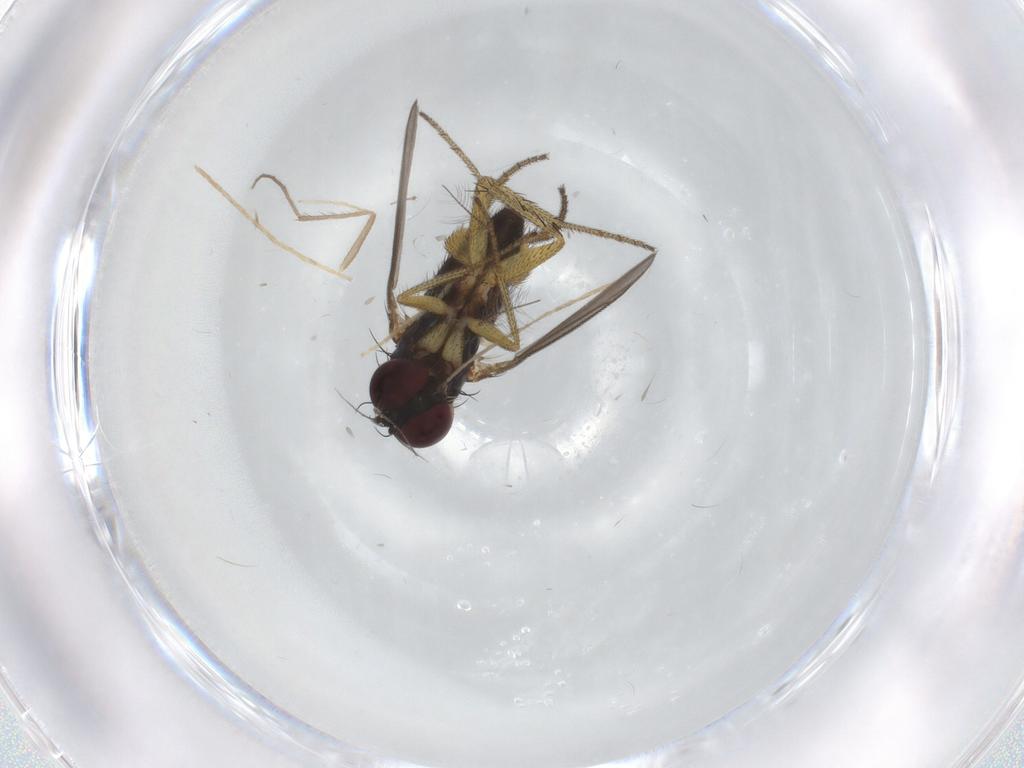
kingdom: Animalia
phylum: Arthropoda
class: Insecta
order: Diptera
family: Chironomidae
